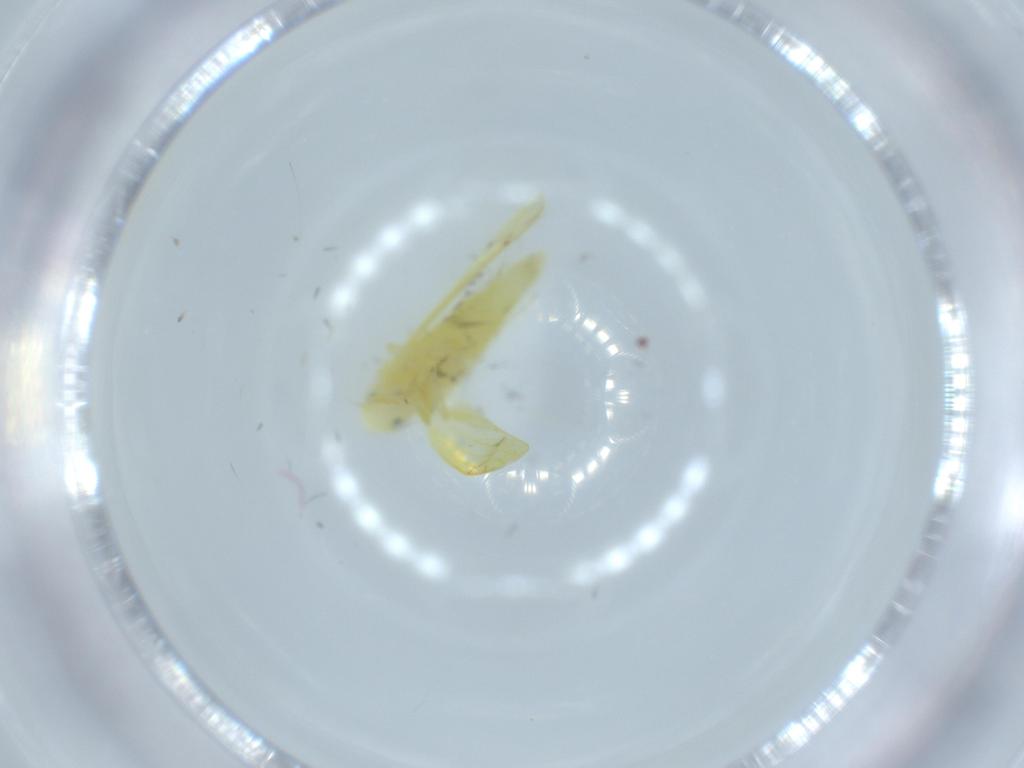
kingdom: Animalia
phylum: Arthropoda
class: Insecta
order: Hemiptera
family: Cicadellidae
